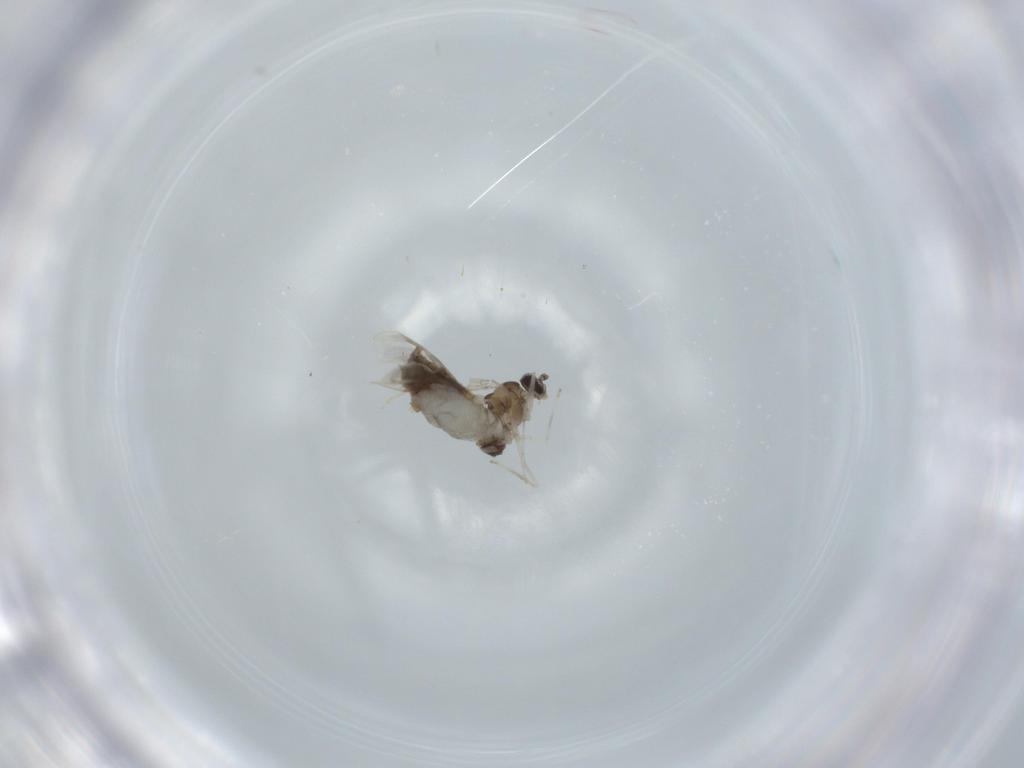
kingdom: Animalia
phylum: Arthropoda
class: Insecta
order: Diptera
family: Cecidomyiidae
